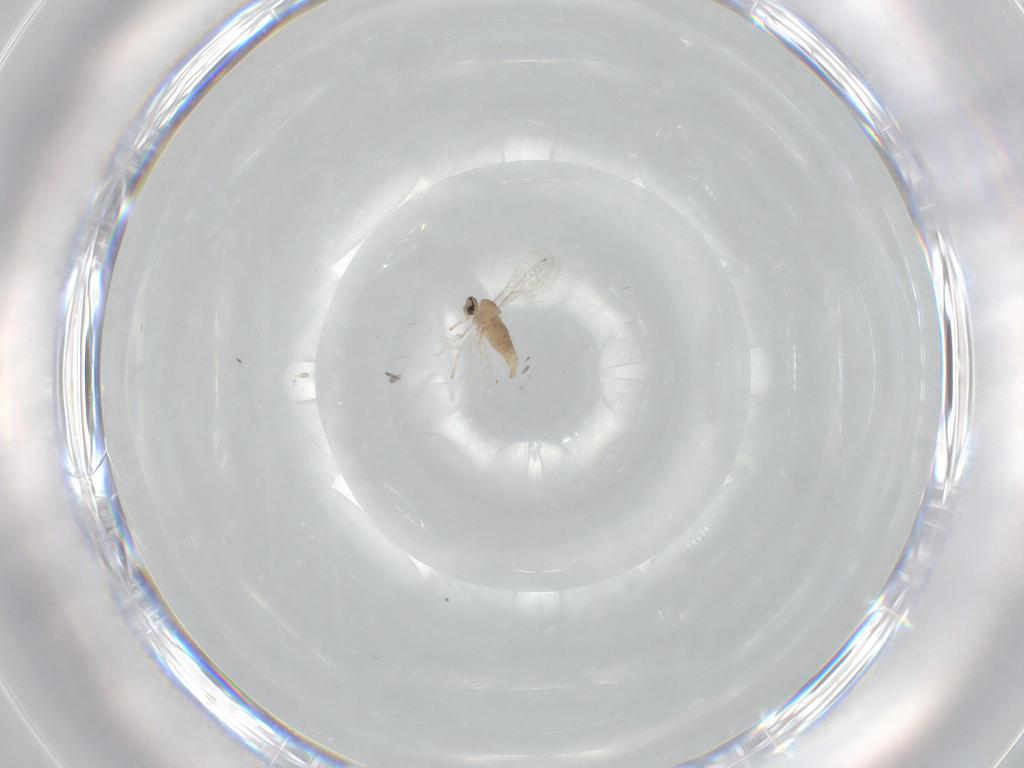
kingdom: Animalia
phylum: Arthropoda
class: Insecta
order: Diptera
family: Cecidomyiidae
